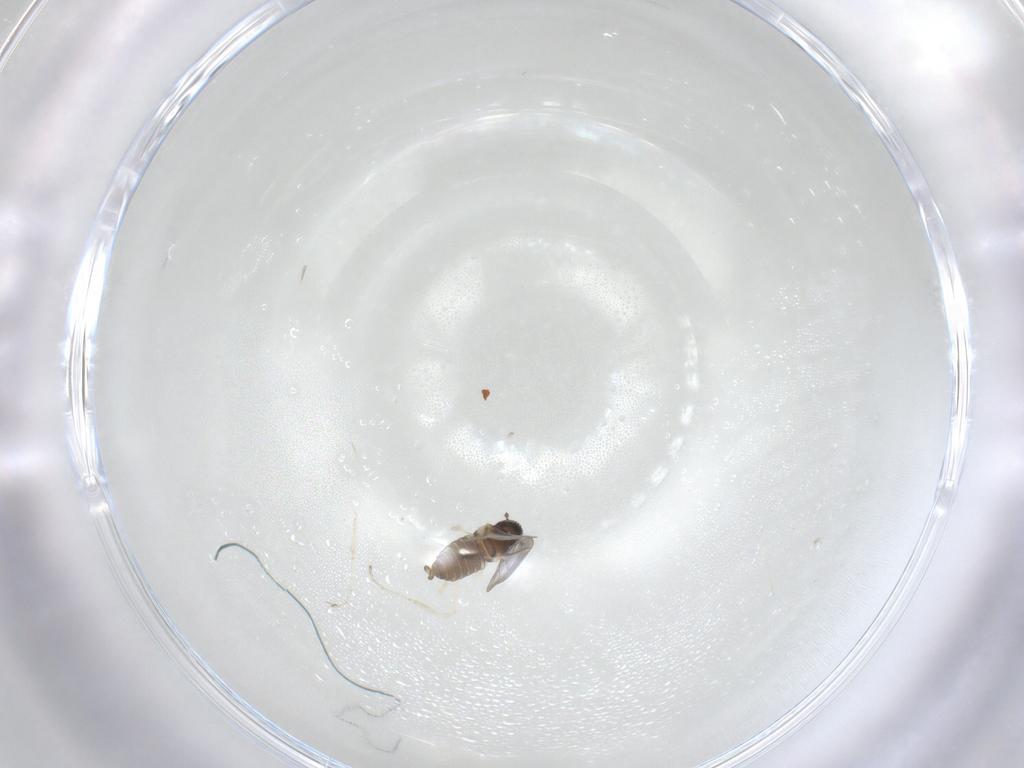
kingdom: Animalia
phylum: Arthropoda
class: Insecta
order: Diptera
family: Cecidomyiidae
